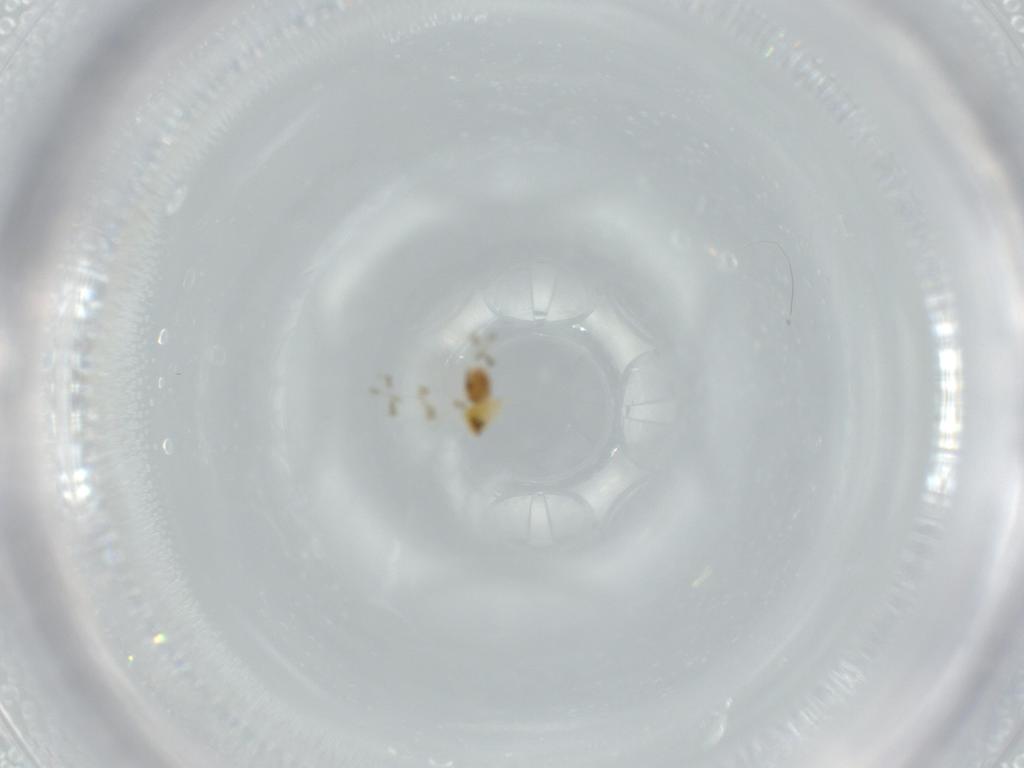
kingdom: Animalia
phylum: Arthropoda
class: Insecta
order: Hemiptera
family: Aleyrodidae
